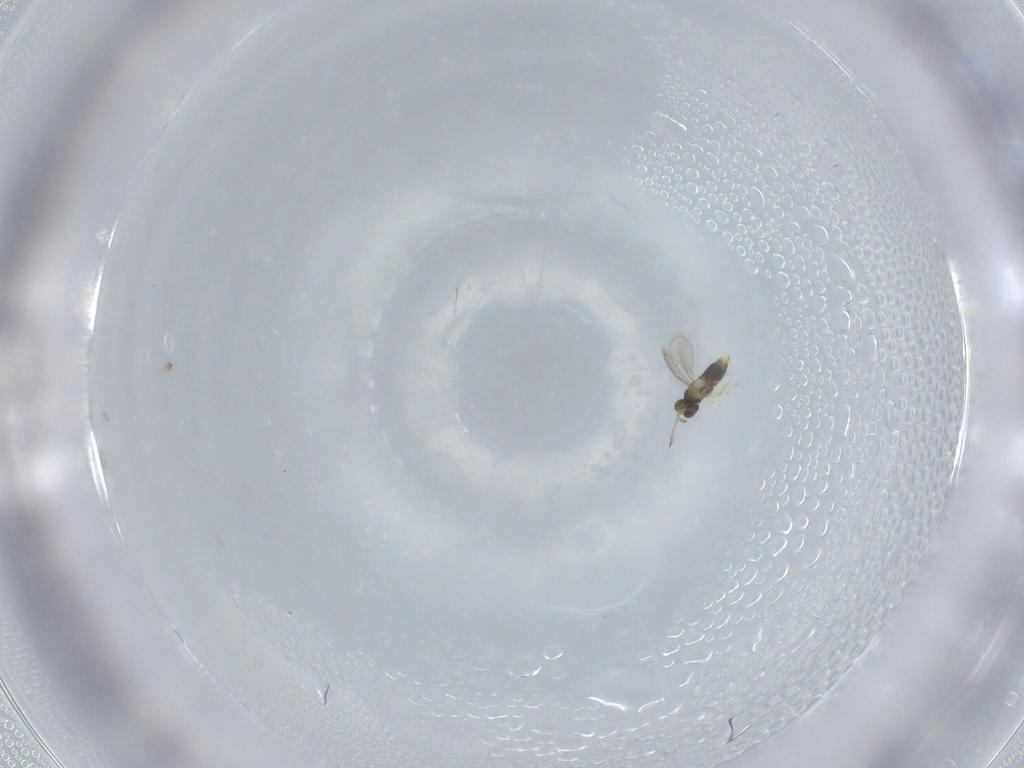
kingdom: Animalia
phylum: Arthropoda
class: Insecta
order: Hymenoptera
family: Aphelinidae
